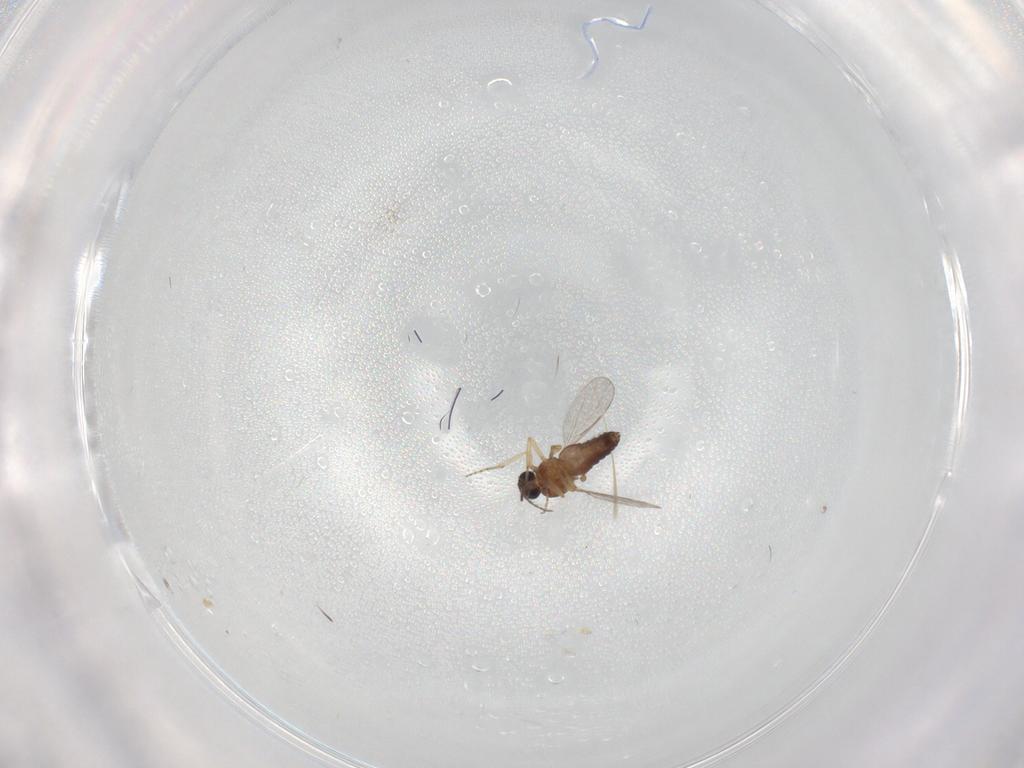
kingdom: Animalia
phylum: Arthropoda
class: Insecta
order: Diptera
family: Ceratopogonidae
